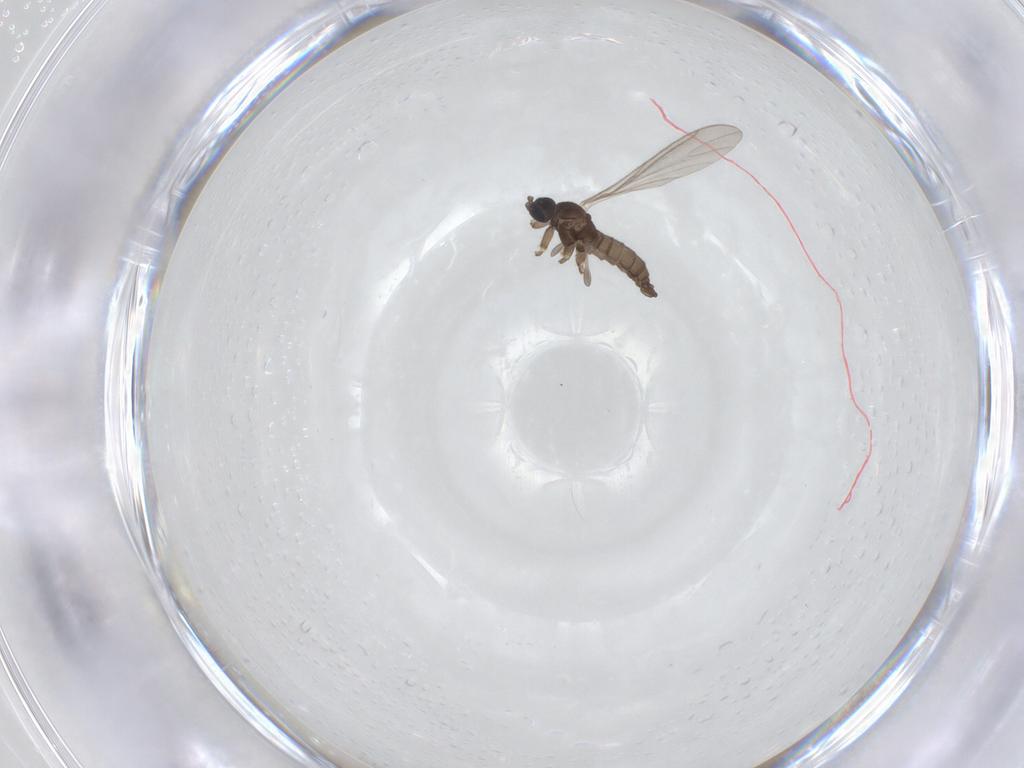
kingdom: Animalia
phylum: Arthropoda
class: Insecta
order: Diptera
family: Sciaridae
